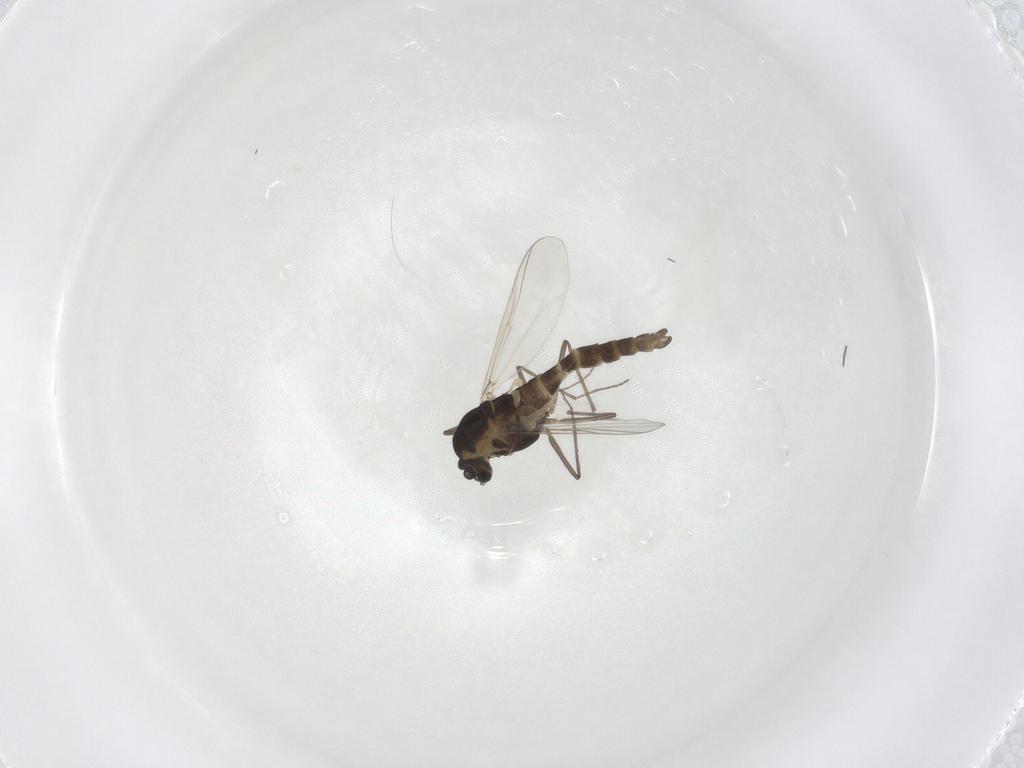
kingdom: Animalia
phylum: Arthropoda
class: Insecta
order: Diptera
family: Chironomidae
